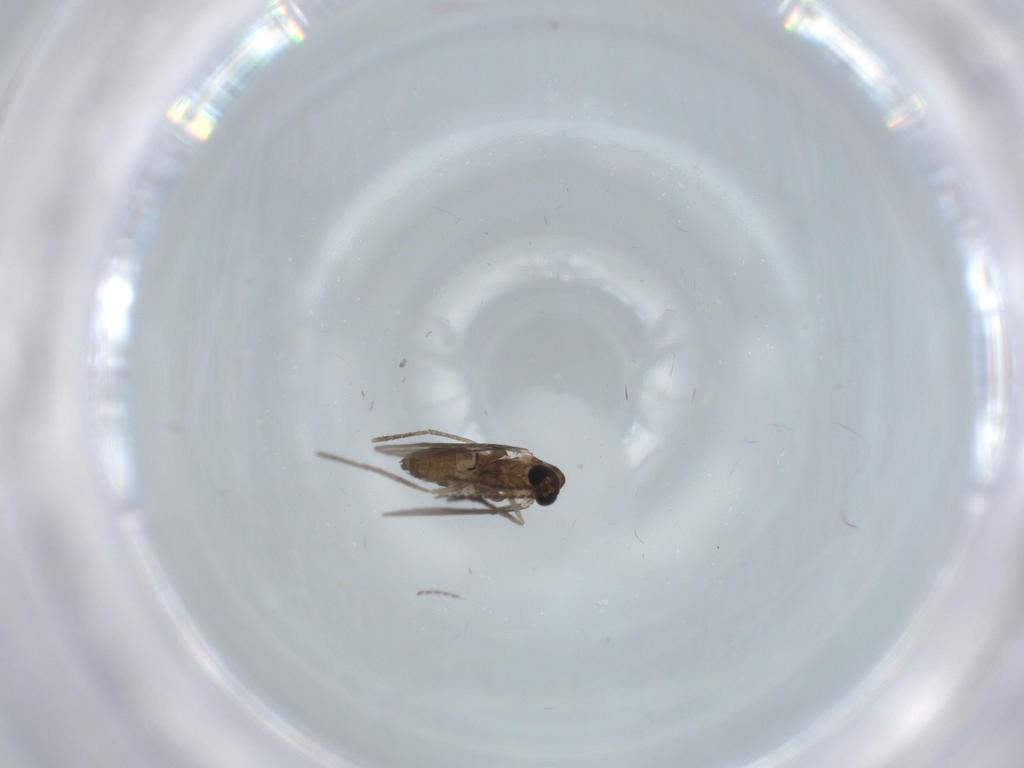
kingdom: Animalia
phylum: Arthropoda
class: Insecta
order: Diptera
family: Psychodidae
